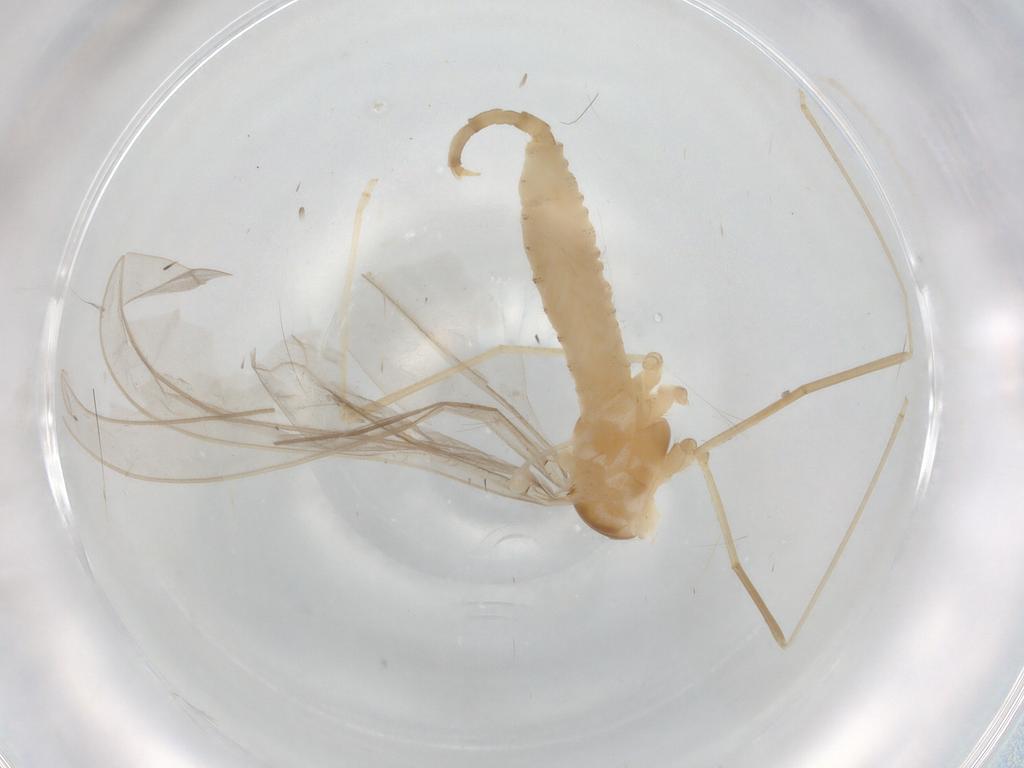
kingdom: Animalia
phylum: Arthropoda
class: Insecta
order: Diptera
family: Cecidomyiidae
